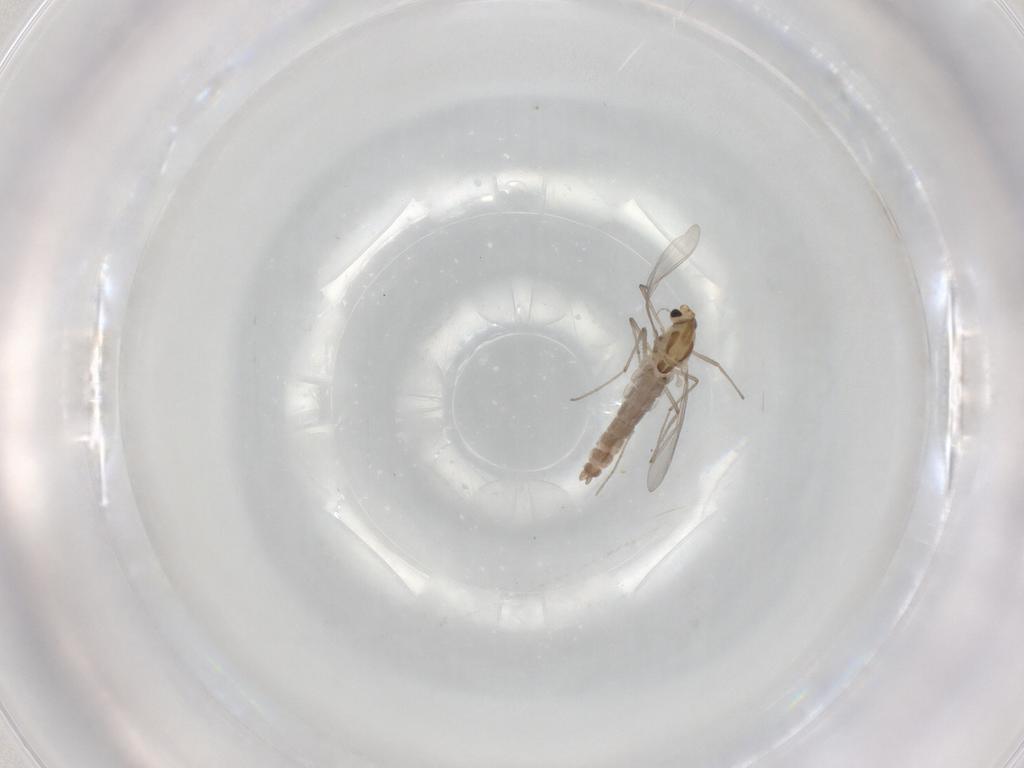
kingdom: Animalia
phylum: Arthropoda
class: Insecta
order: Diptera
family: Chironomidae
